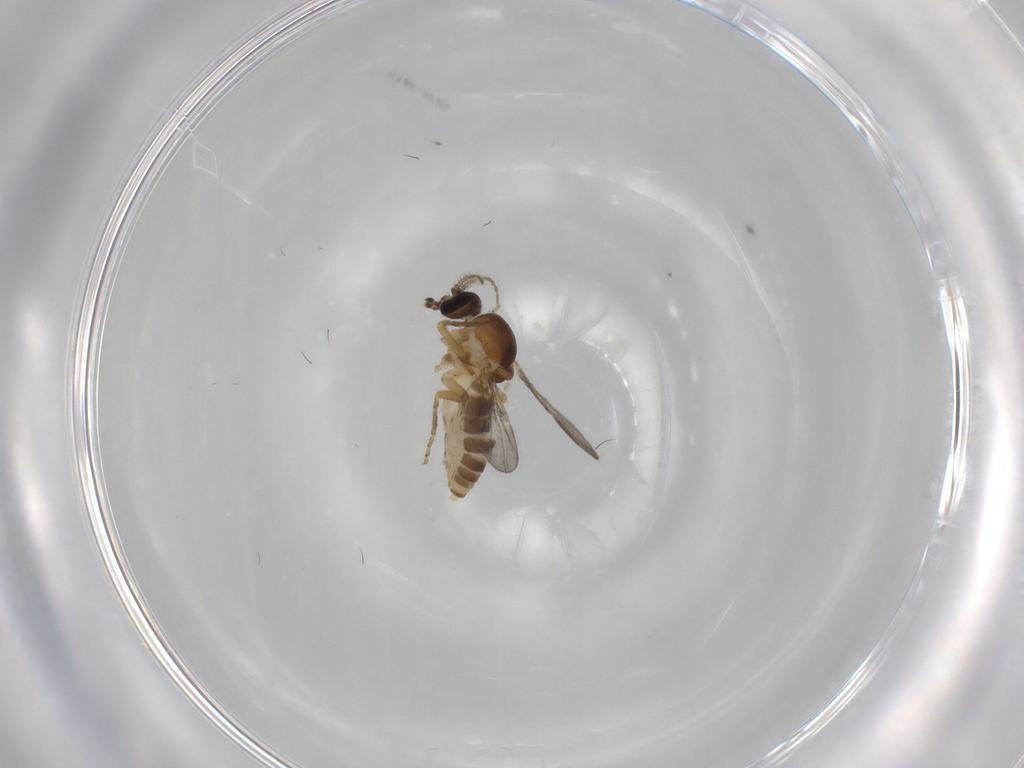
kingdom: Animalia
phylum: Arthropoda
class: Insecta
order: Diptera
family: Ceratopogonidae
